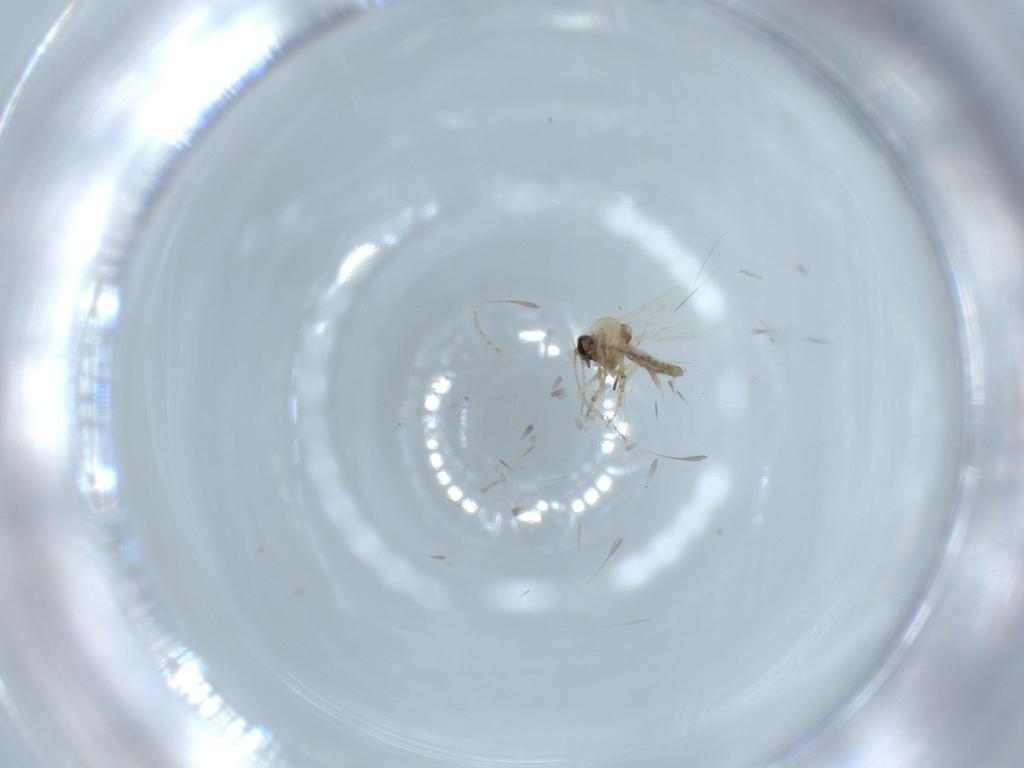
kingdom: Animalia
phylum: Arthropoda
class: Insecta
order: Diptera
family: Ceratopogonidae
